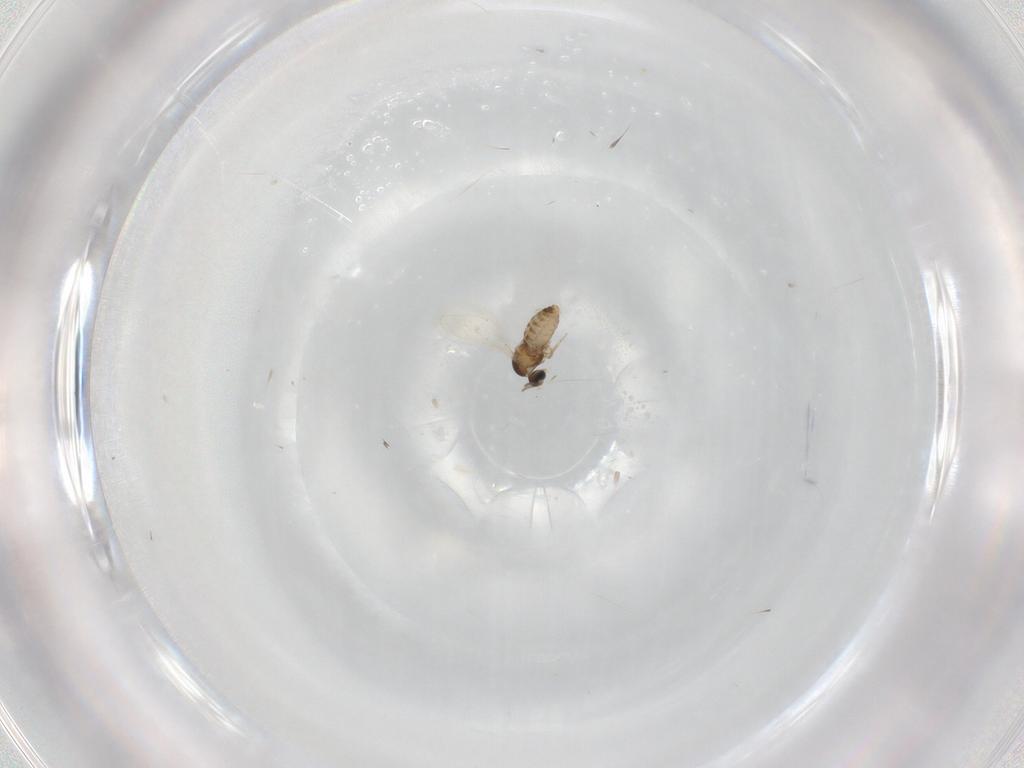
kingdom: Animalia
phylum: Arthropoda
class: Insecta
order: Diptera
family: Cecidomyiidae
